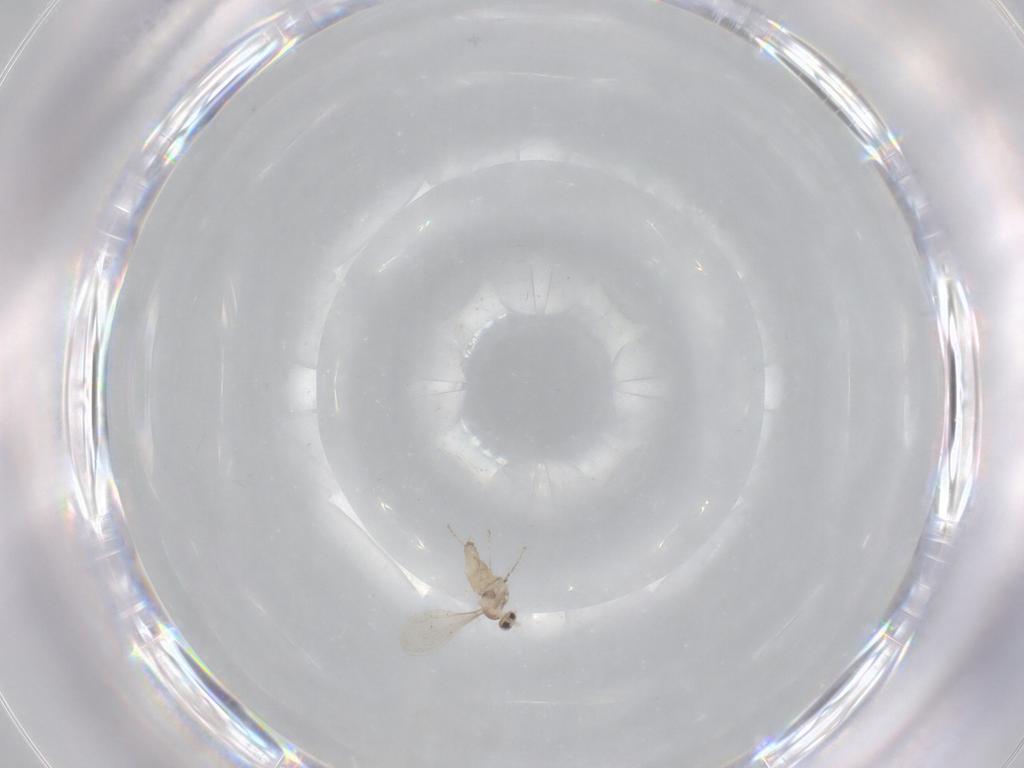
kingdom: Animalia
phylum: Arthropoda
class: Insecta
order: Diptera
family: Cecidomyiidae
